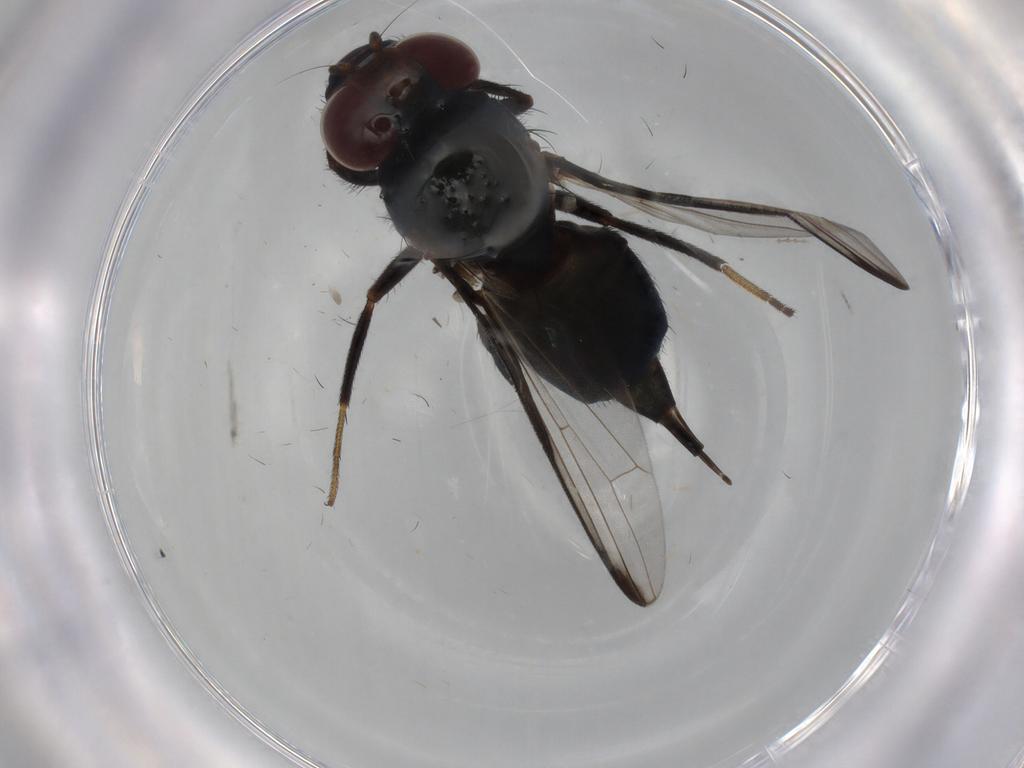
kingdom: Animalia
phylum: Arthropoda
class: Insecta
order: Diptera
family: Ulidiidae
